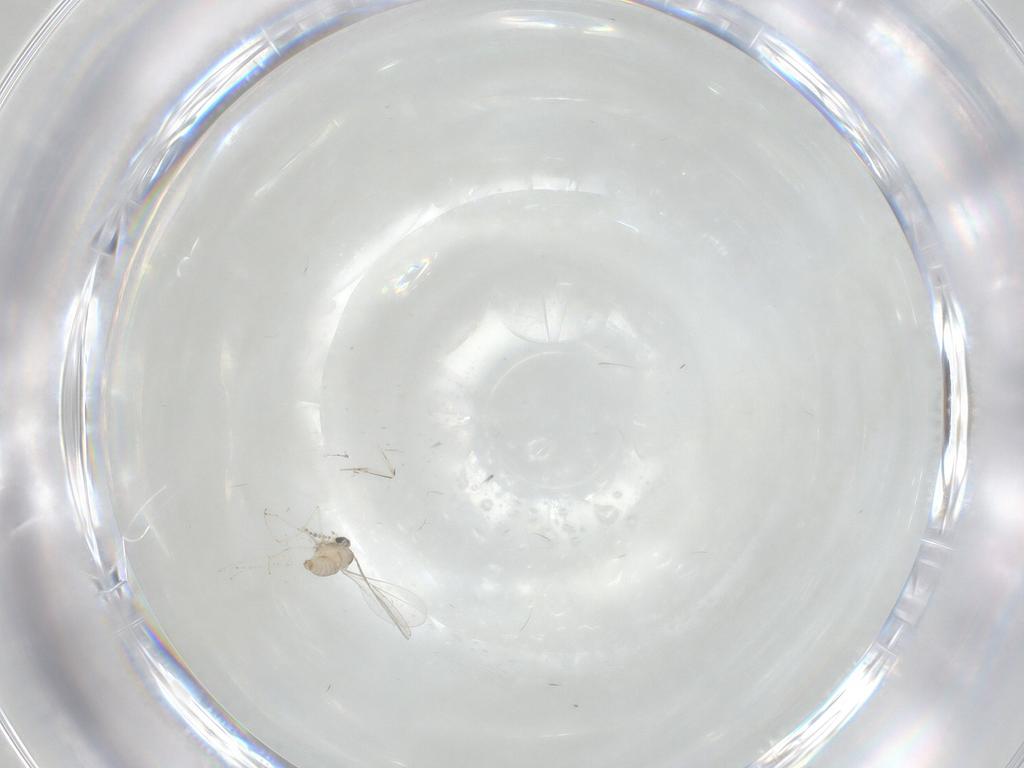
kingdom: Animalia
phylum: Arthropoda
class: Insecta
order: Diptera
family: Cecidomyiidae
